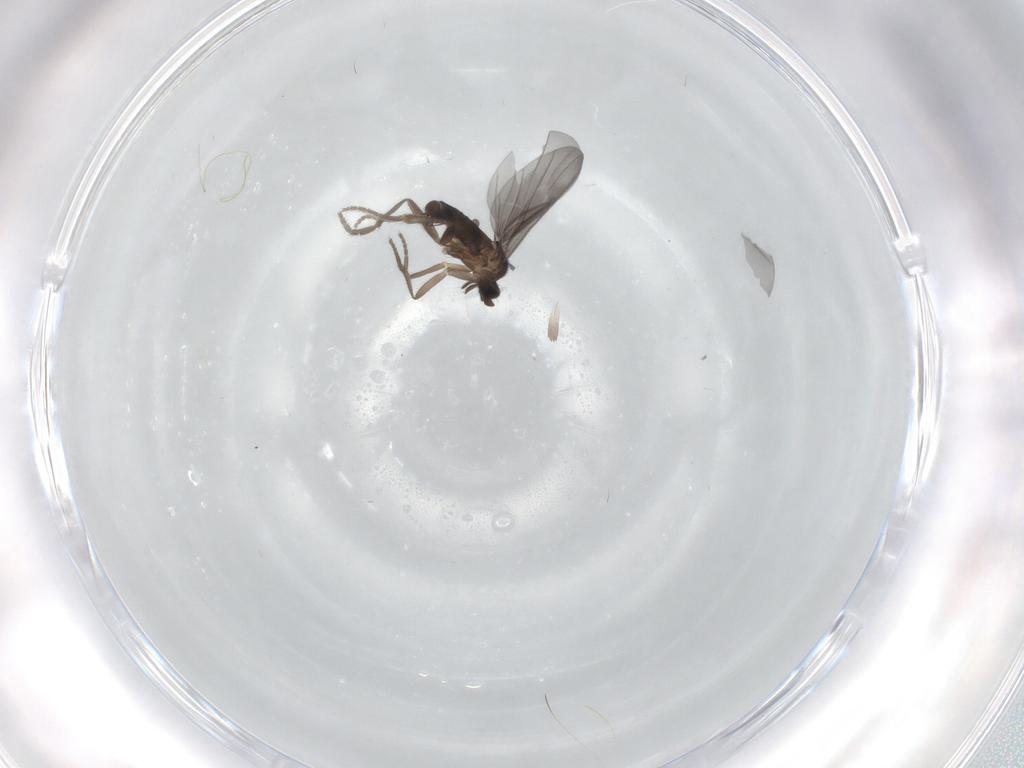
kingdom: Animalia
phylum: Arthropoda
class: Insecta
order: Diptera
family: Phoridae
